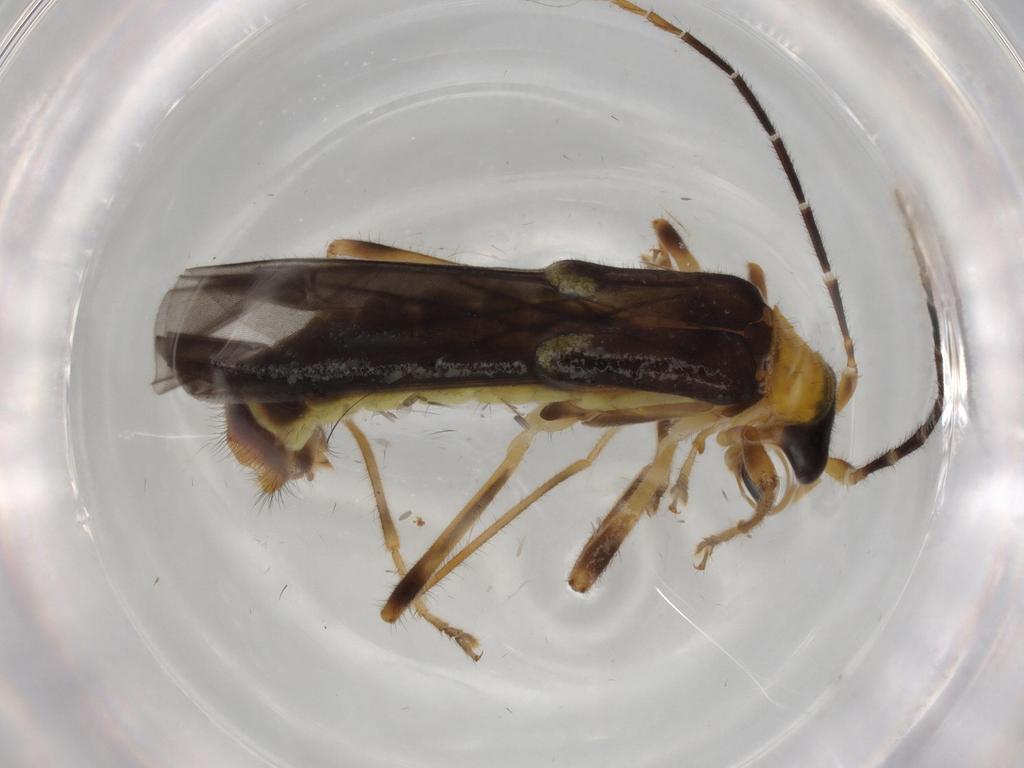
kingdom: Animalia
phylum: Arthropoda
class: Insecta
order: Coleoptera
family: Cantharidae
